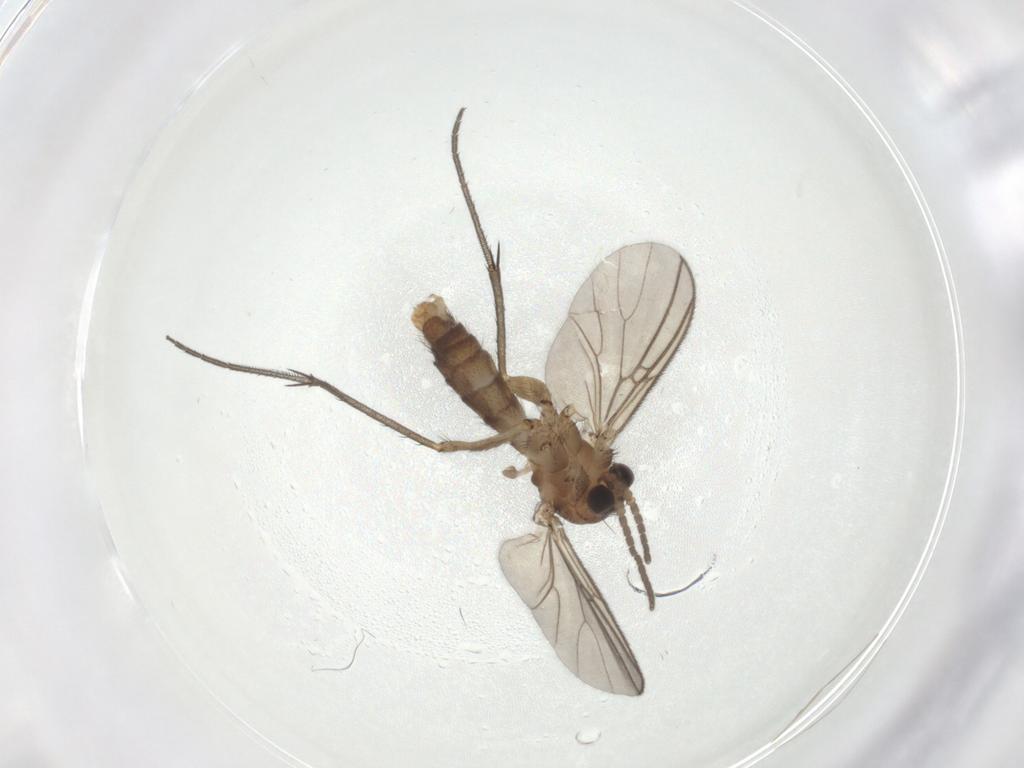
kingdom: Animalia
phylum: Arthropoda
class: Insecta
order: Diptera
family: Mycetophilidae
